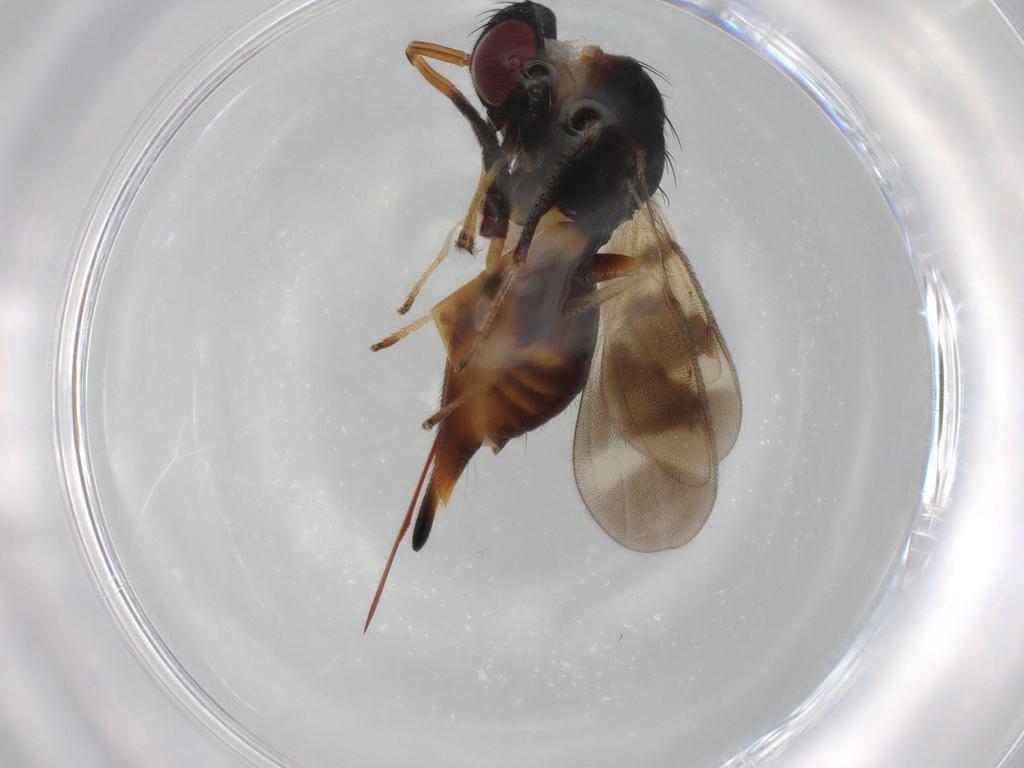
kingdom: Animalia
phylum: Arthropoda
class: Insecta
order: Hymenoptera
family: Diparidae
